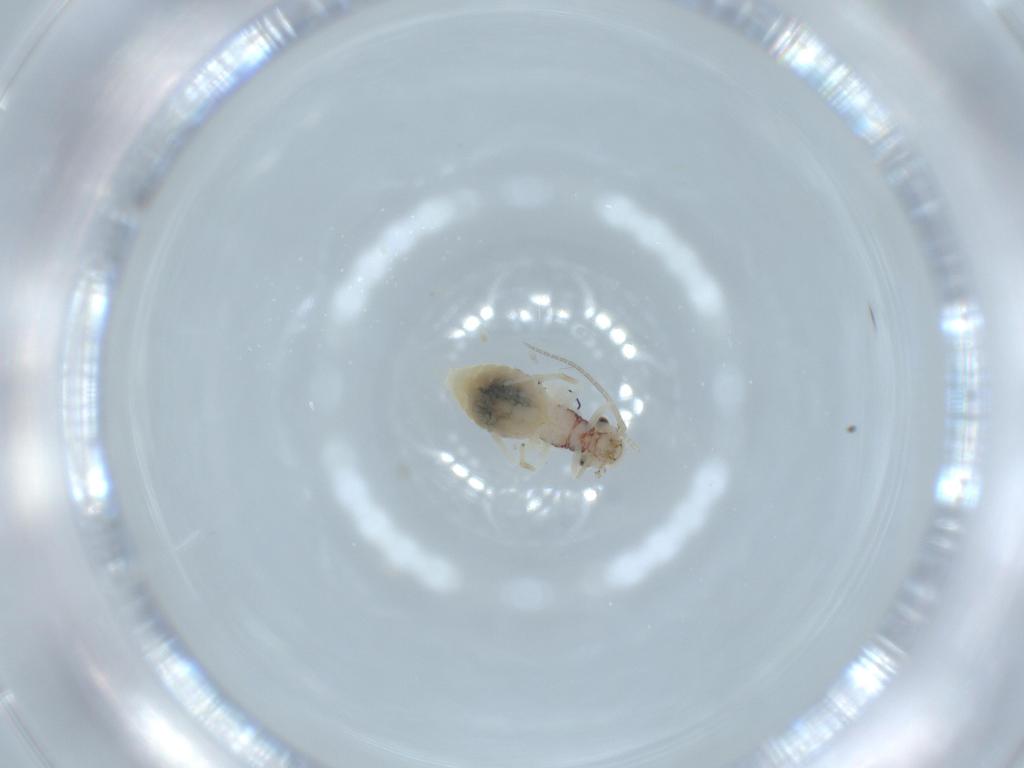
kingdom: Animalia
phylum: Arthropoda
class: Insecta
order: Psocodea
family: Caeciliusidae
